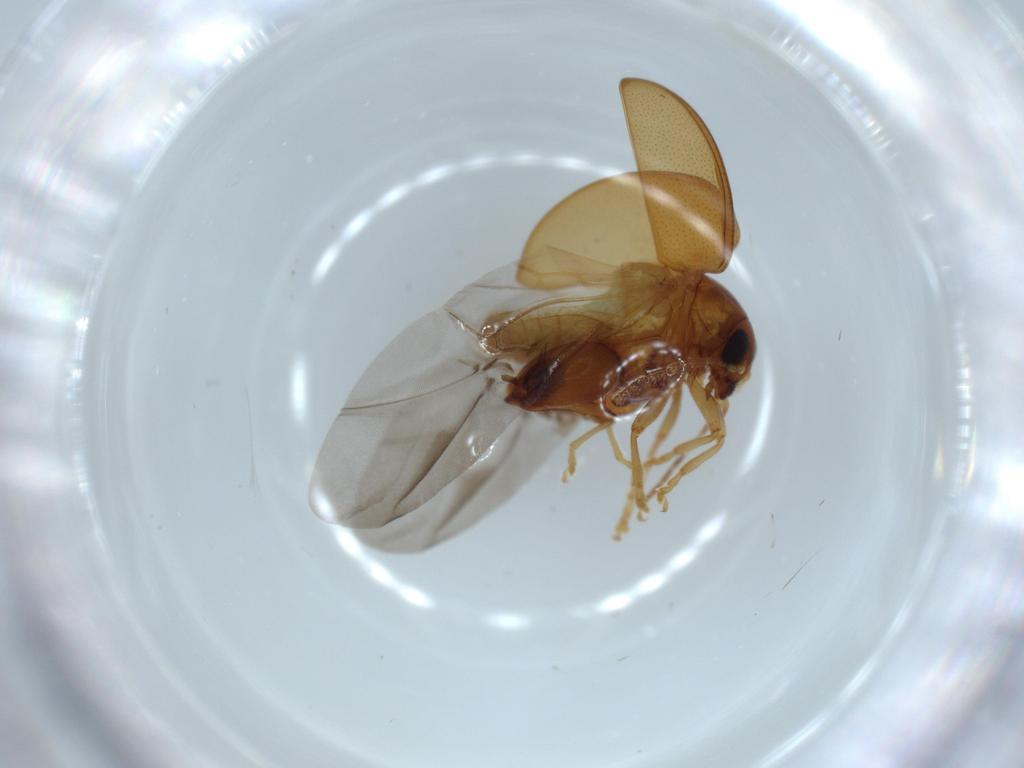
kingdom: Animalia
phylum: Arthropoda
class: Insecta
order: Coleoptera
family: Chrysomelidae
